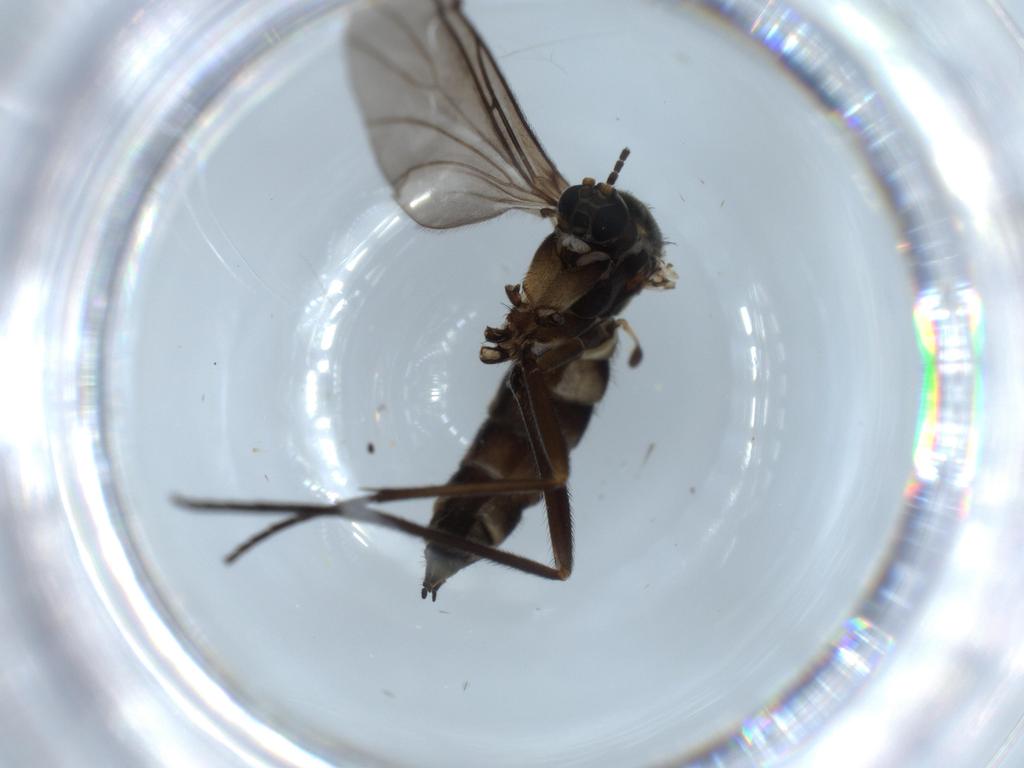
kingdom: Animalia
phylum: Arthropoda
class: Insecta
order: Diptera
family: Sciaridae
